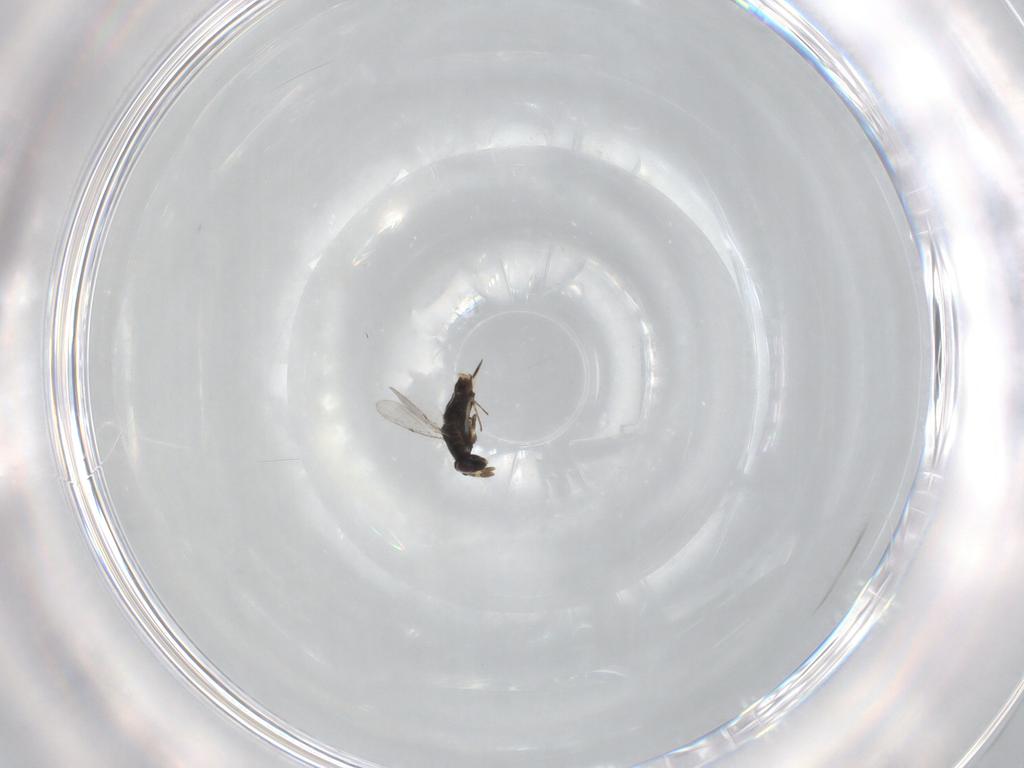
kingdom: Animalia
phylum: Arthropoda
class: Insecta
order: Hymenoptera
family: Encyrtidae
